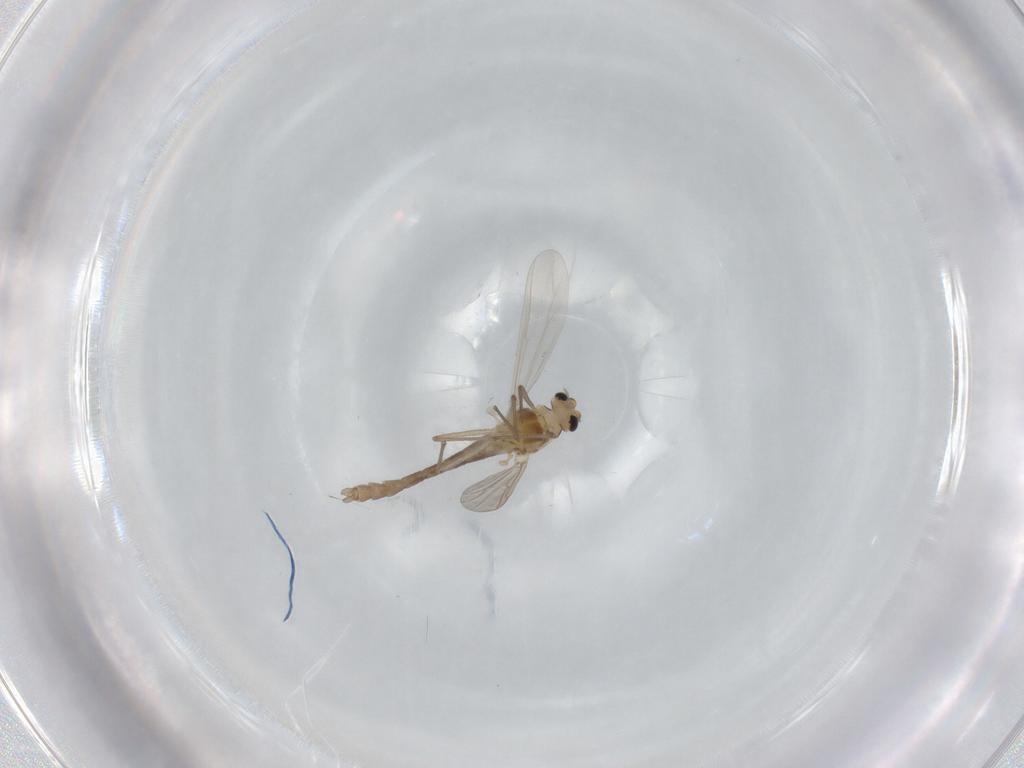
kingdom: Animalia
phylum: Arthropoda
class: Insecta
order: Diptera
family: Chironomidae
